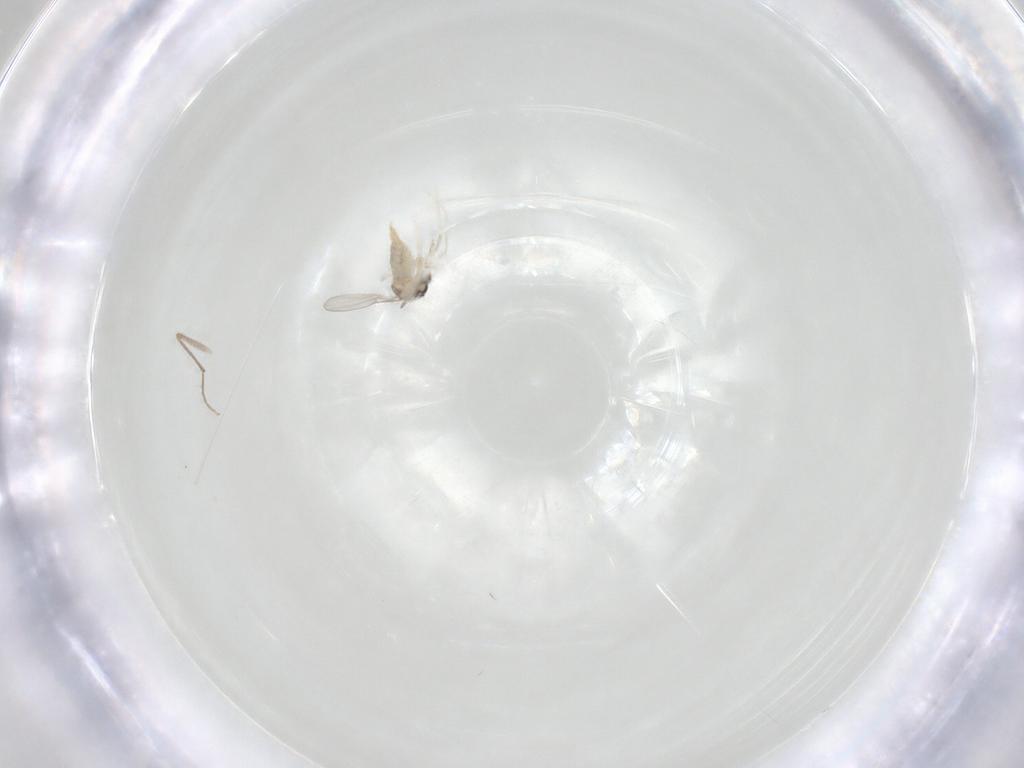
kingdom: Animalia
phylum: Arthropoda
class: Insecta
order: Diptera
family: Cecidomyiidae
